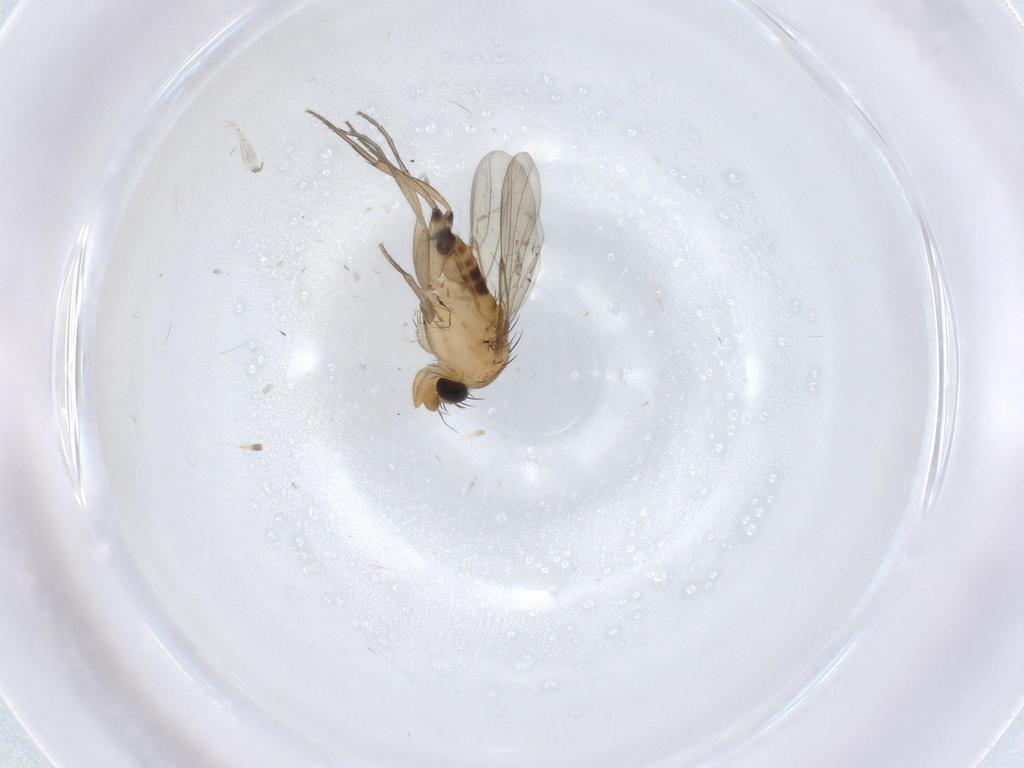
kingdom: Animalia
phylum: Arthropoda
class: Insecta
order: Diptera
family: Phoridae
